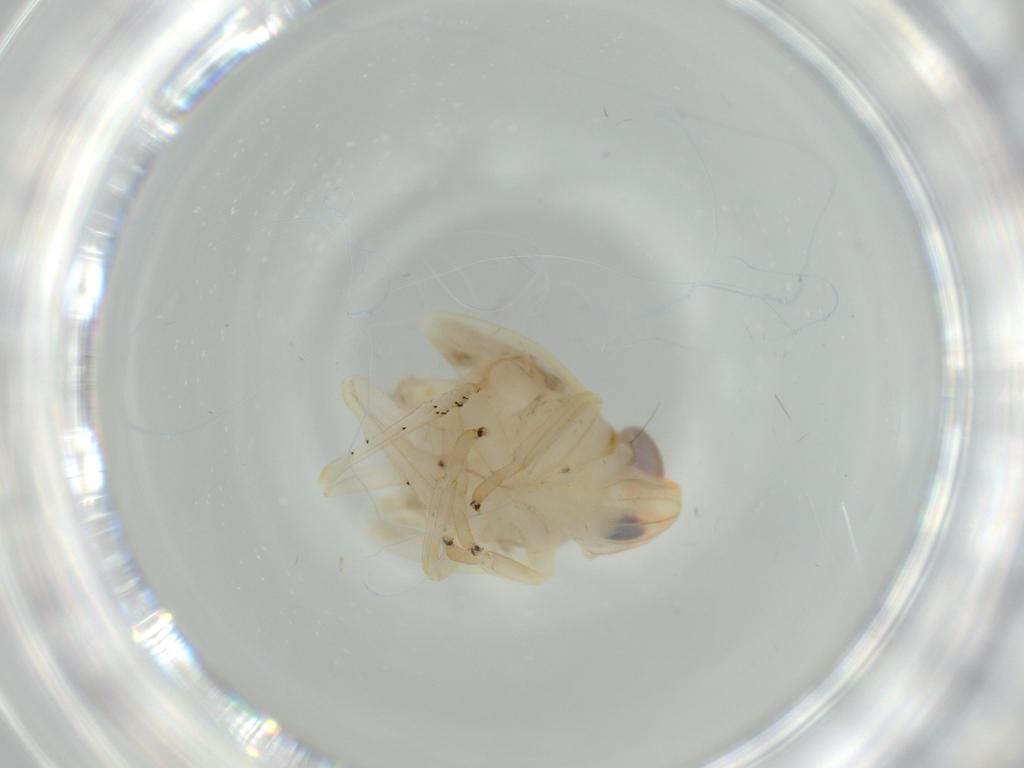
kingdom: Animalia
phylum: Arthropoda
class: Insecta
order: Hemiptera
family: Nogodinidae
